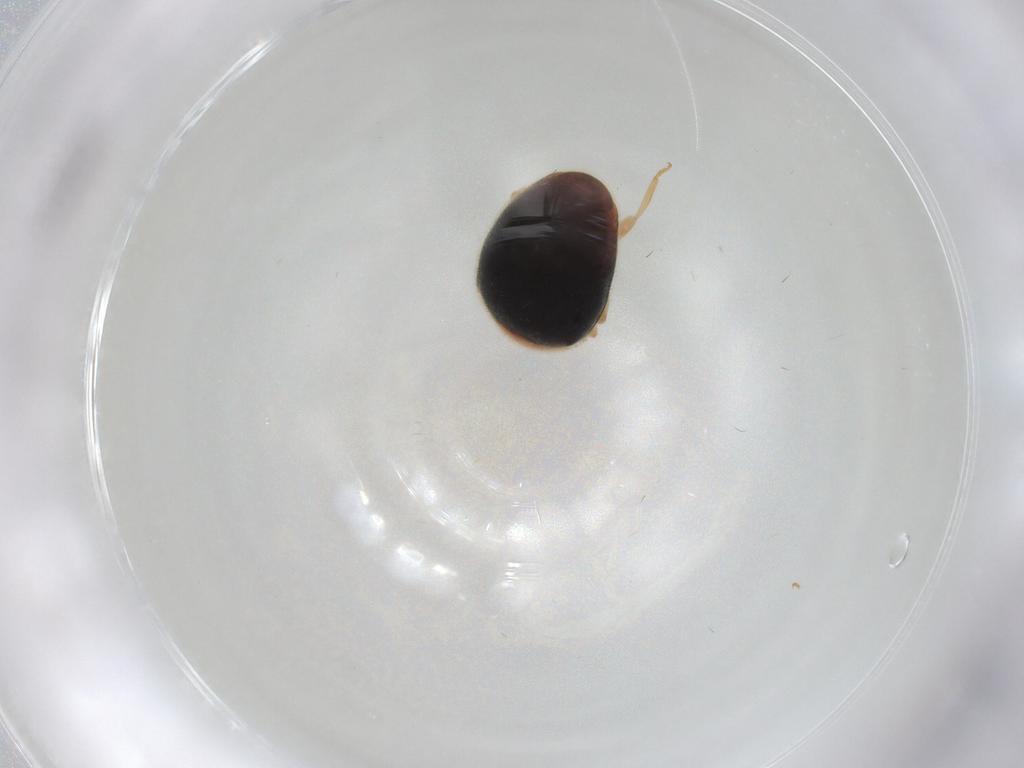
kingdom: Animalia
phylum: Arthropoda
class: Insecta
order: Coleoptera
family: Coccinellidae
